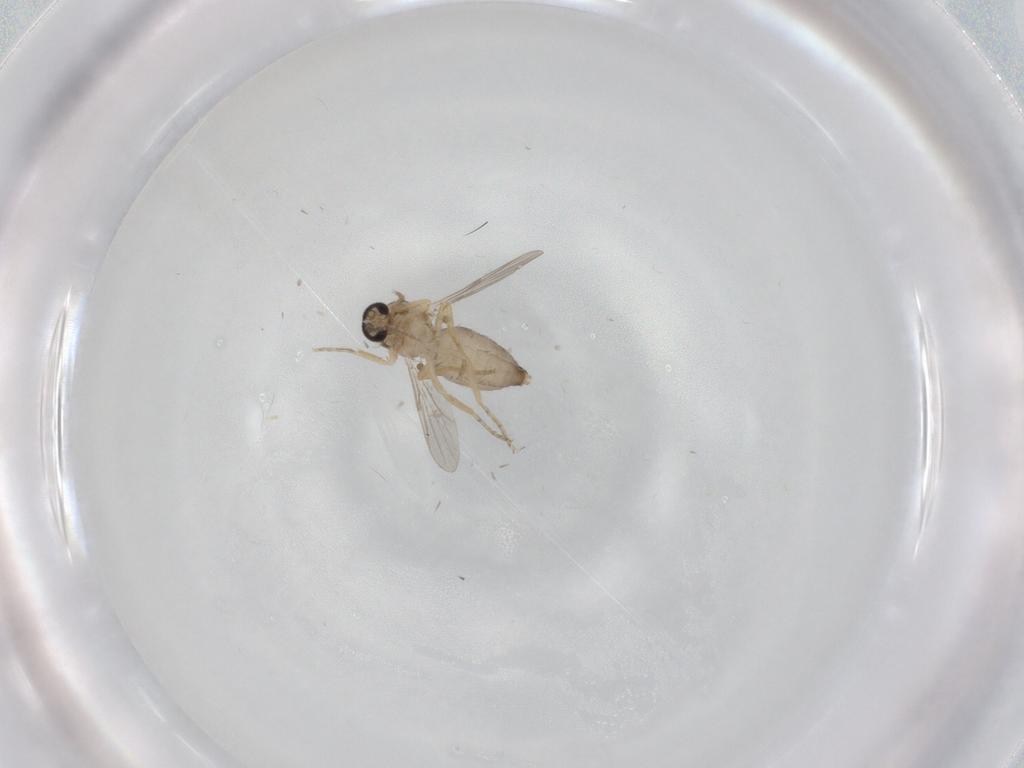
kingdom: Animalia
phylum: Arthropoda
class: Insecta
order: Diptera
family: Ceratopogonidae
